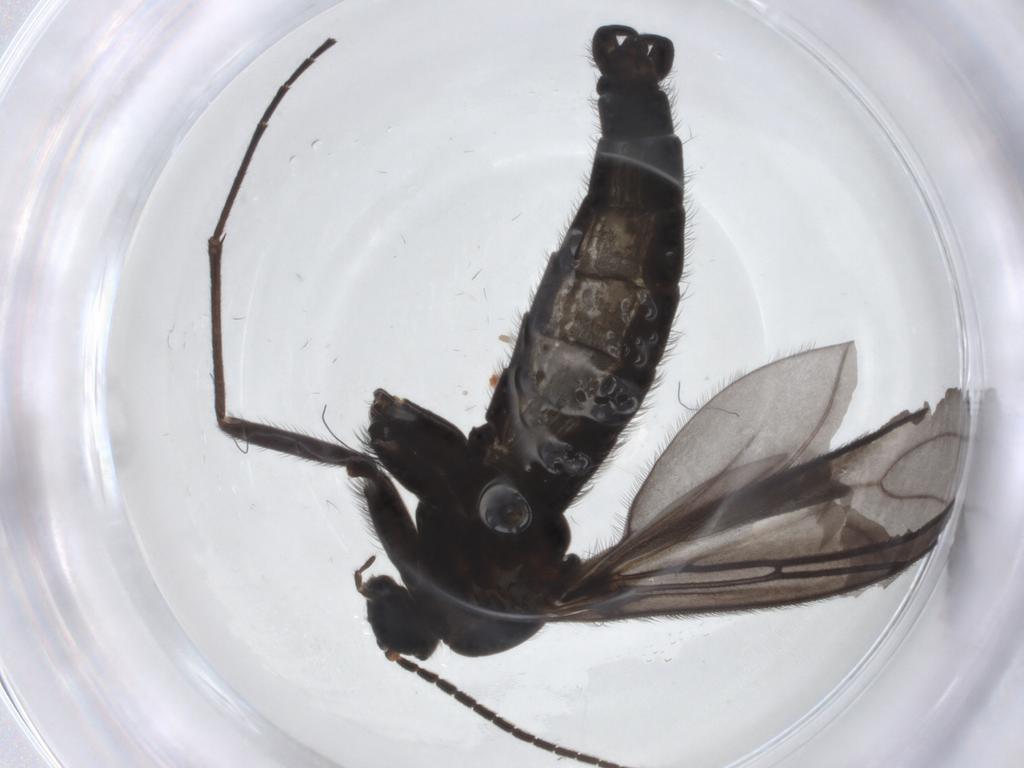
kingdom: Animalia
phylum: Arthropoda
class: Insecta
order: Diptera
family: Sciaridae
